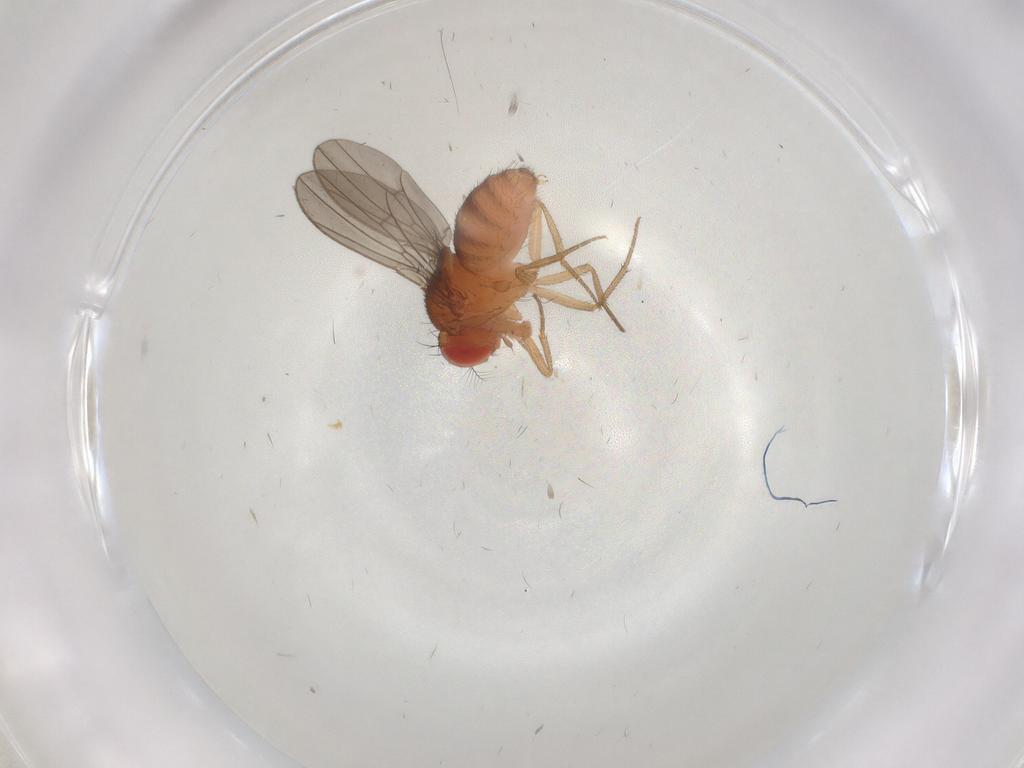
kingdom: Animalia
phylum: Arthropoda
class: Insecta
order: Diptera
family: Drosophilidae
